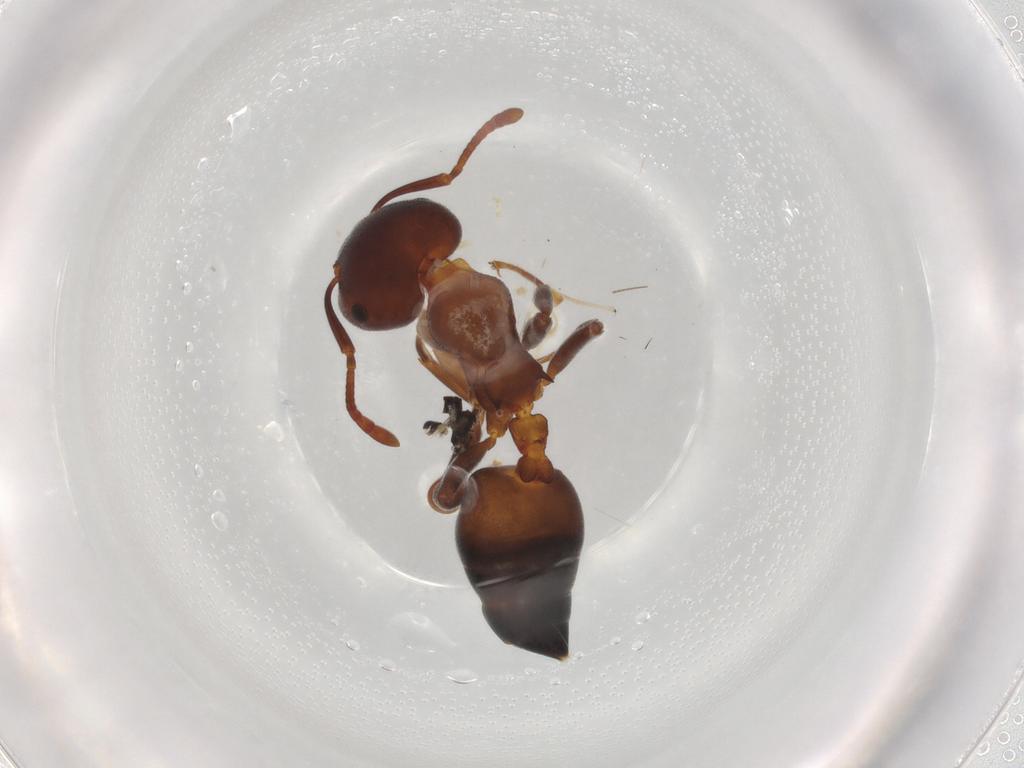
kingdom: Animalia
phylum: Arthropoda
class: Insecta
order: Hymenoptera
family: Formicidae
